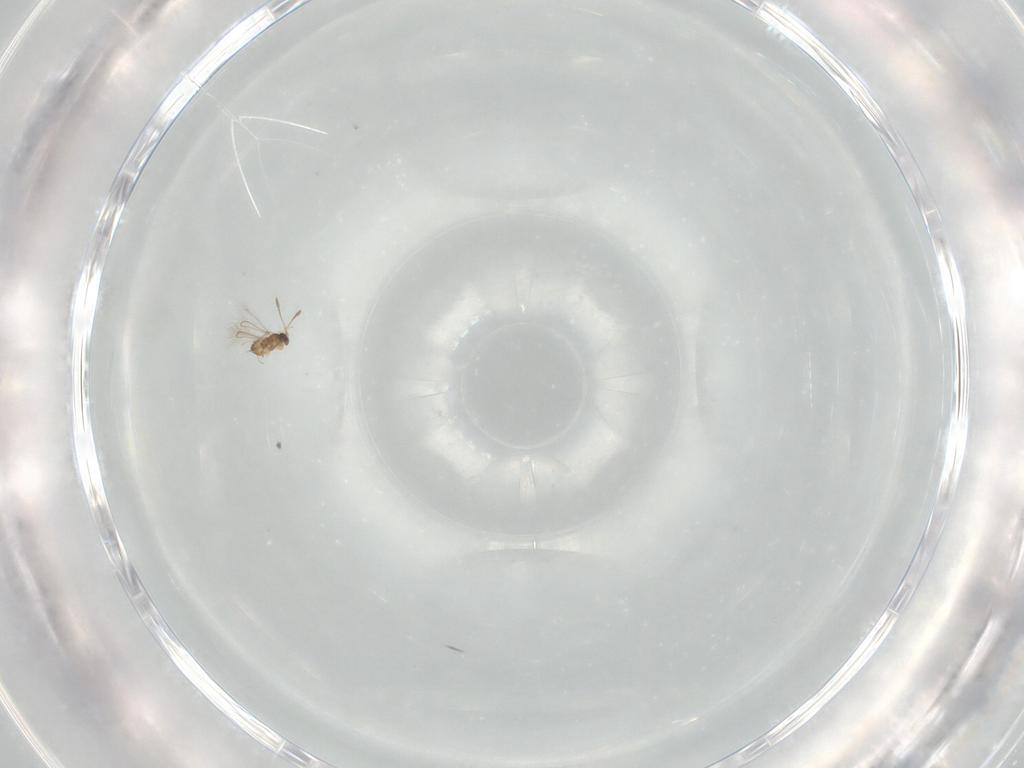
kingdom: Animalia
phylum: Arthropoda
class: Insecta
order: Hymenoptera
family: Mymaridae
